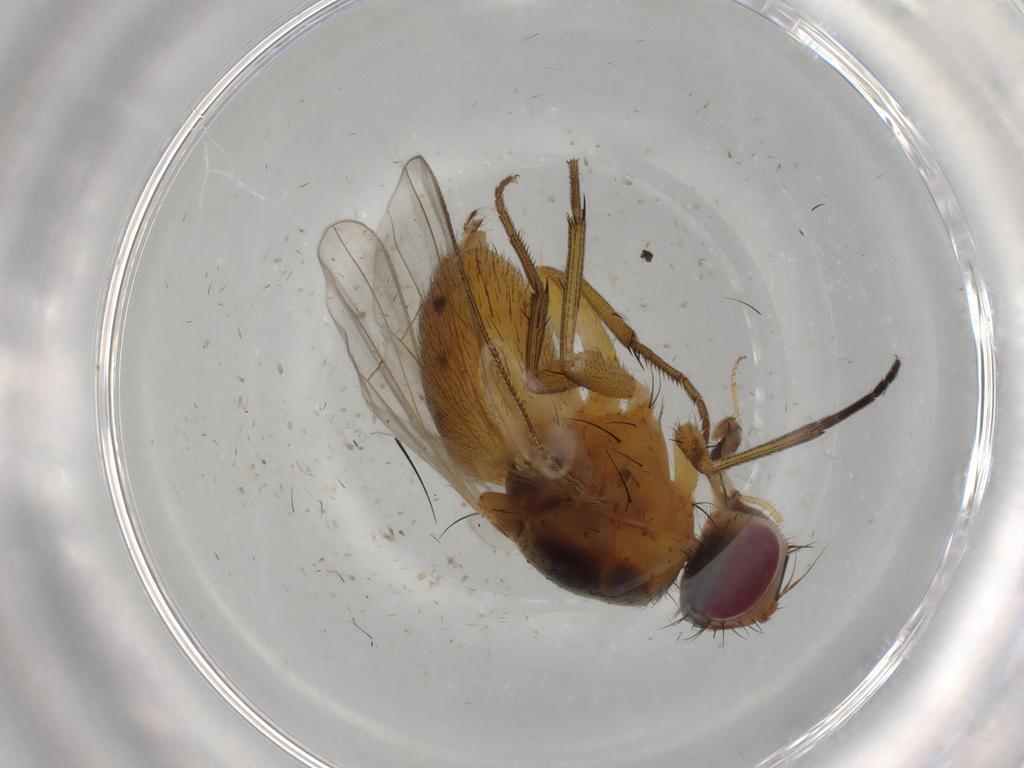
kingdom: Animalia
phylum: Arthropoda
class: Insecta
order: Diptera
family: Muscidae
